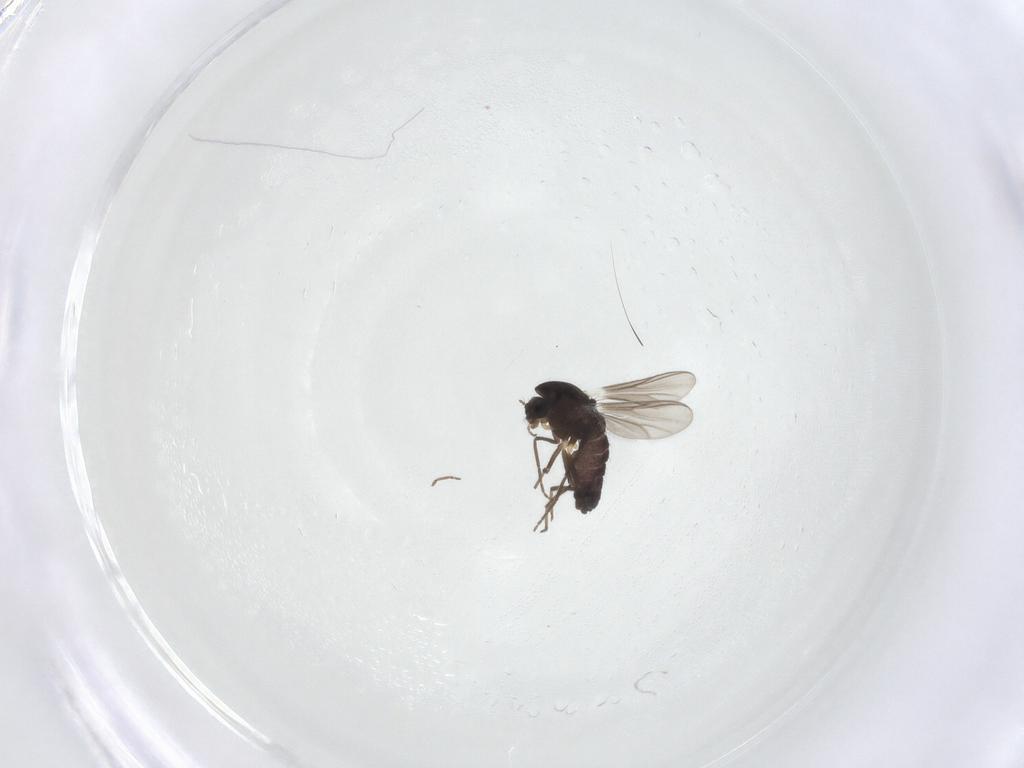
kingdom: Animalia
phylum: Arthropoda
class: Insecta
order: Diptera
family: Chironomidae
